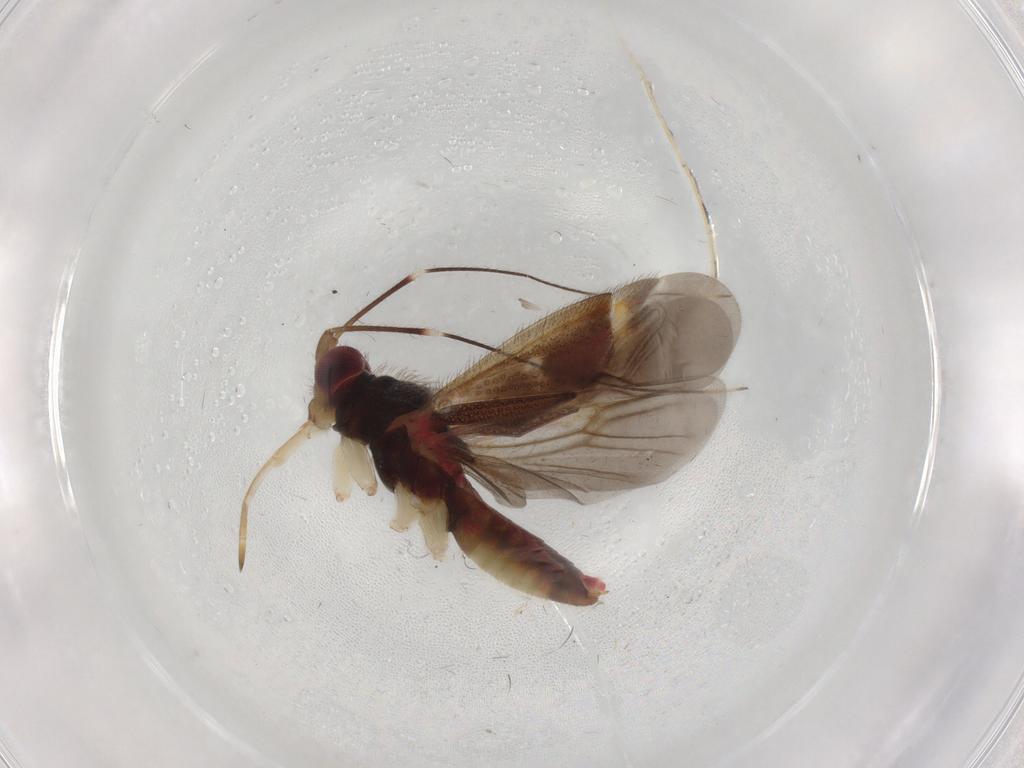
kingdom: Animalia
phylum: Arthropoda
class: Insecta
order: Hemiptera
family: Miridae
